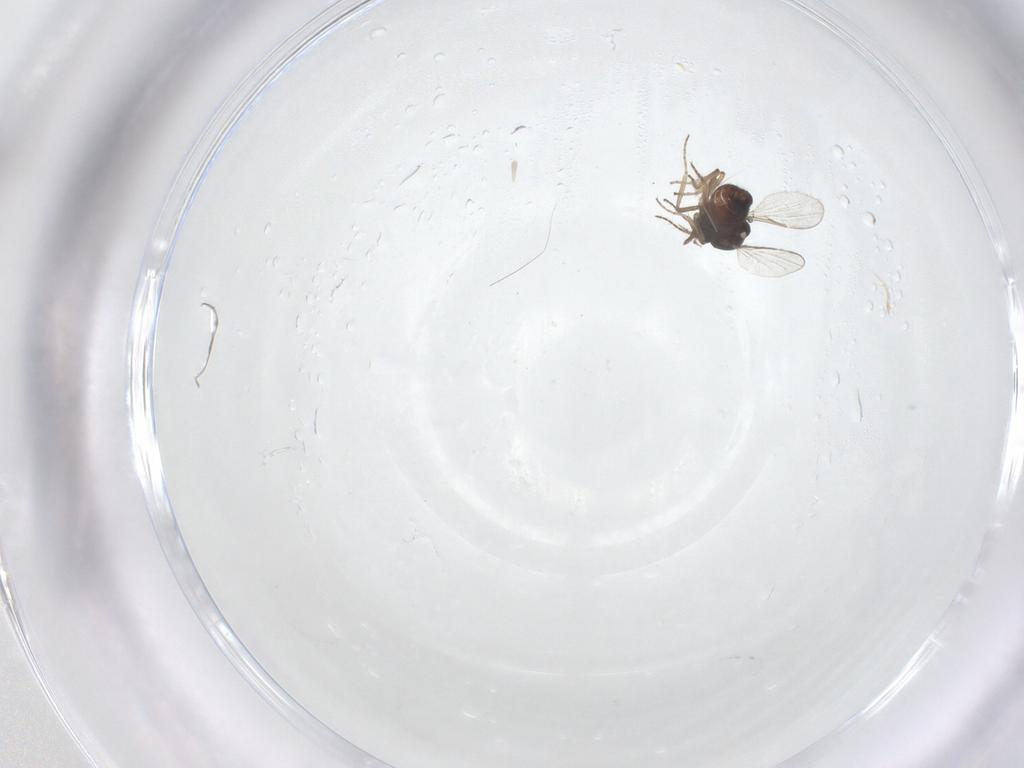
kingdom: Animalia
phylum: Arthropoda
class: Insecta
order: Diptera
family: Ceratopogonidae
